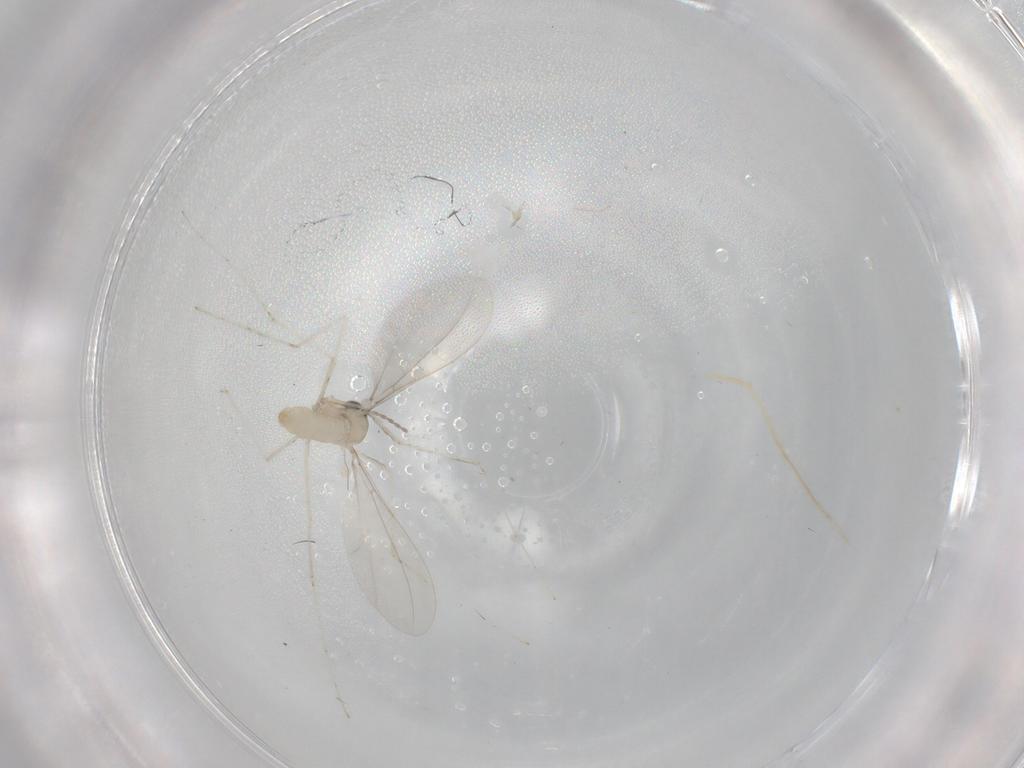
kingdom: Animalia
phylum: Arthropoda
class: Insecta
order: Diptera
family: Cecidomyiidae
